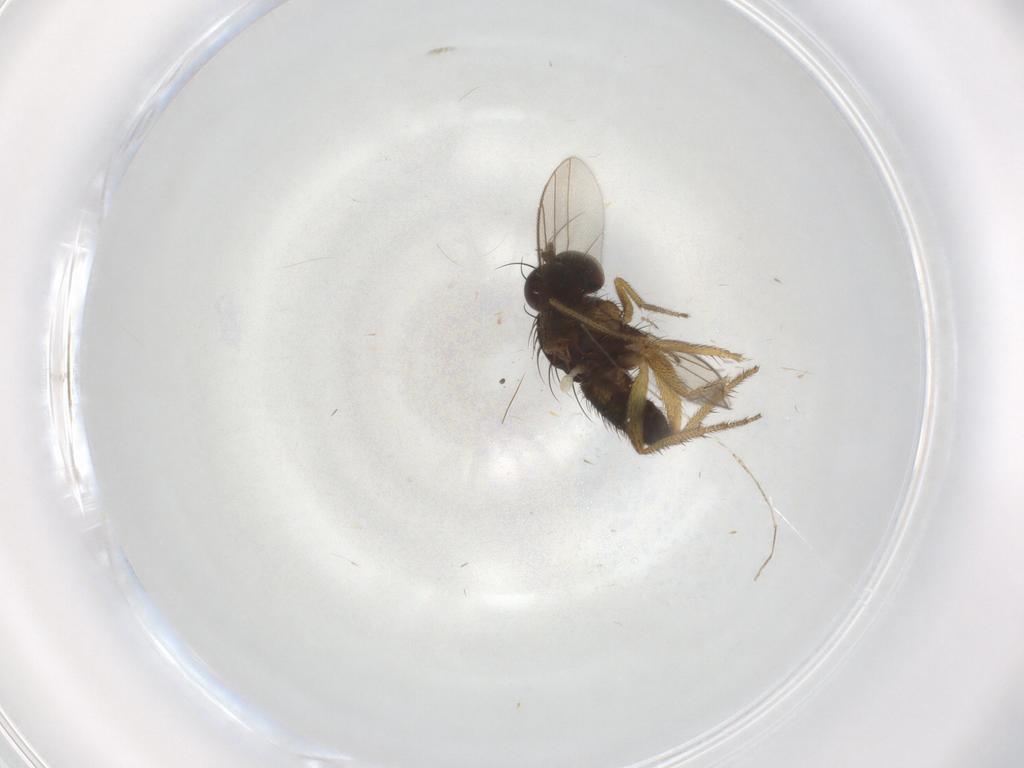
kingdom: Animalia
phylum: Arthropoda
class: Insecta
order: Diptera
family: Cecidomyiidae
